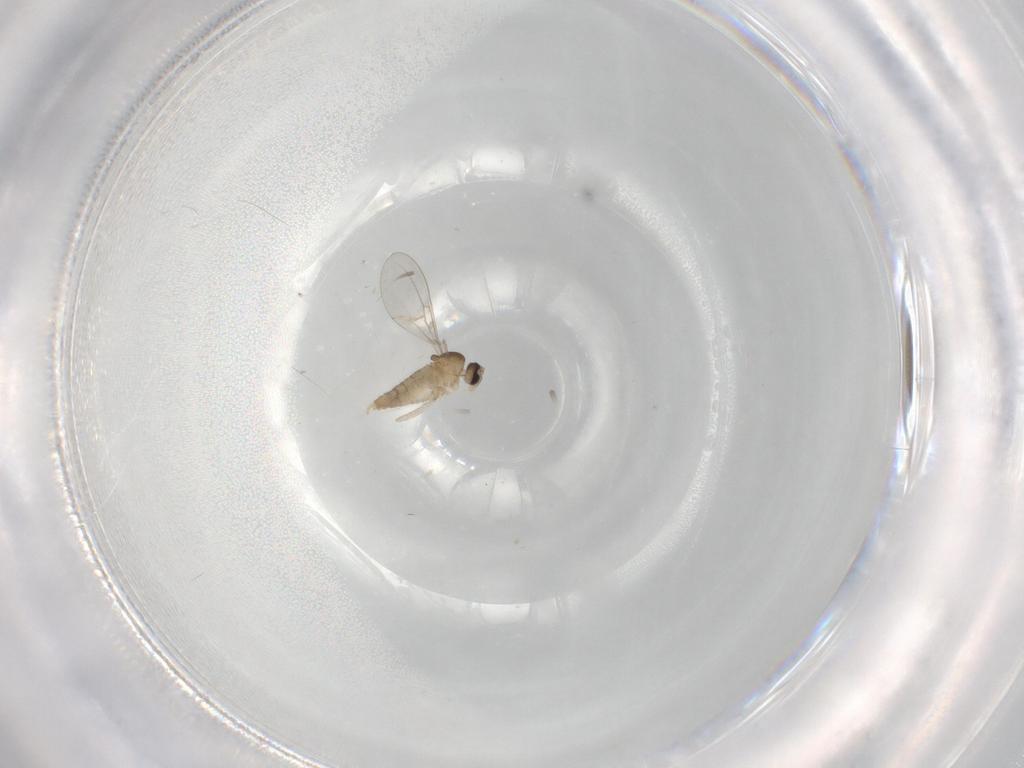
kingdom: Animalia
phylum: Arthropoda
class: Insecta
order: Diptera
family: Cecidomyiidae
